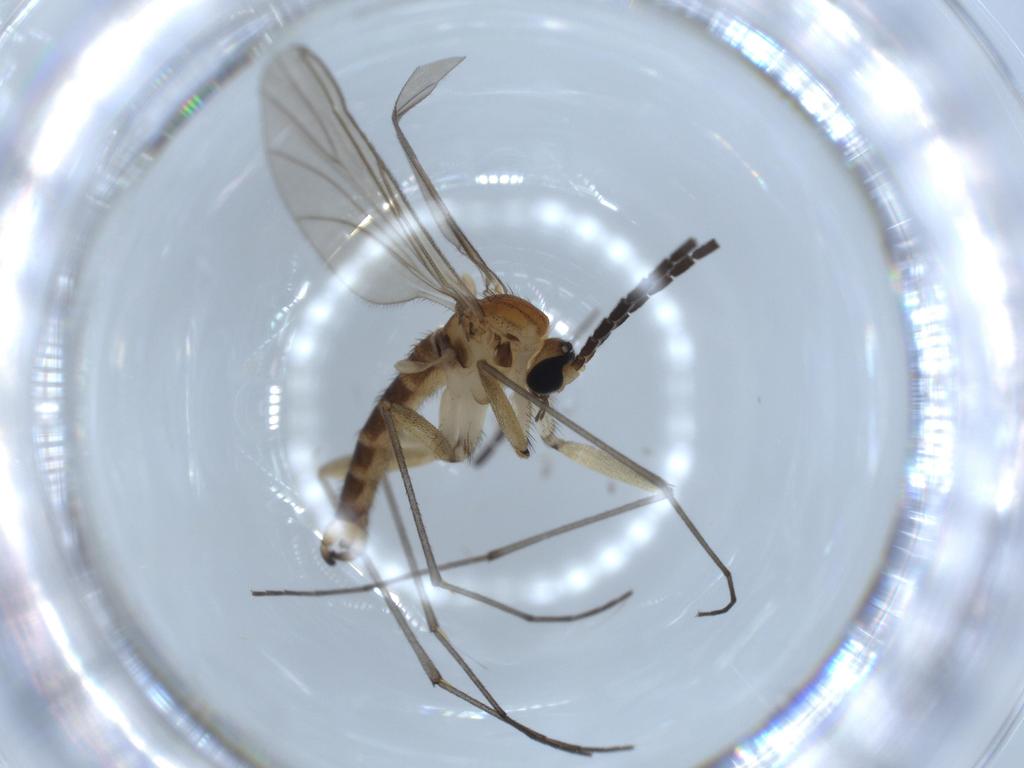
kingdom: Animalia
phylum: Arthropoda
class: Insecta
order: Diptera
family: Sciaridae
